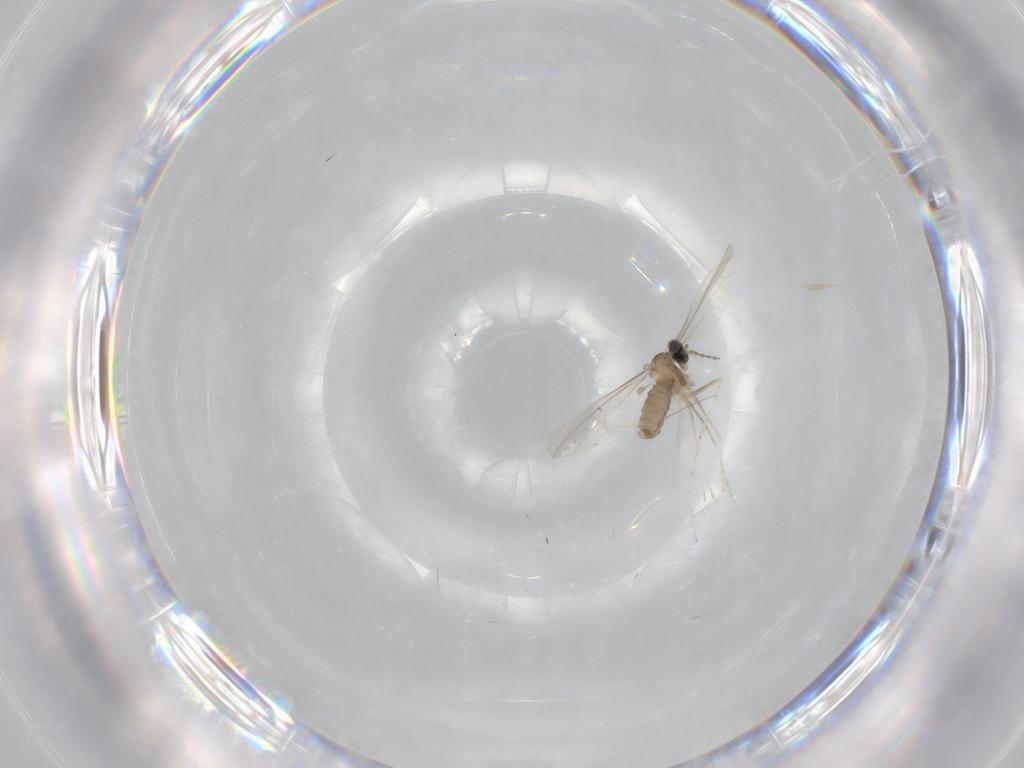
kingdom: Animalia
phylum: Arthropoda
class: Insecta
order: Diptera
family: Cecidomyiidae
